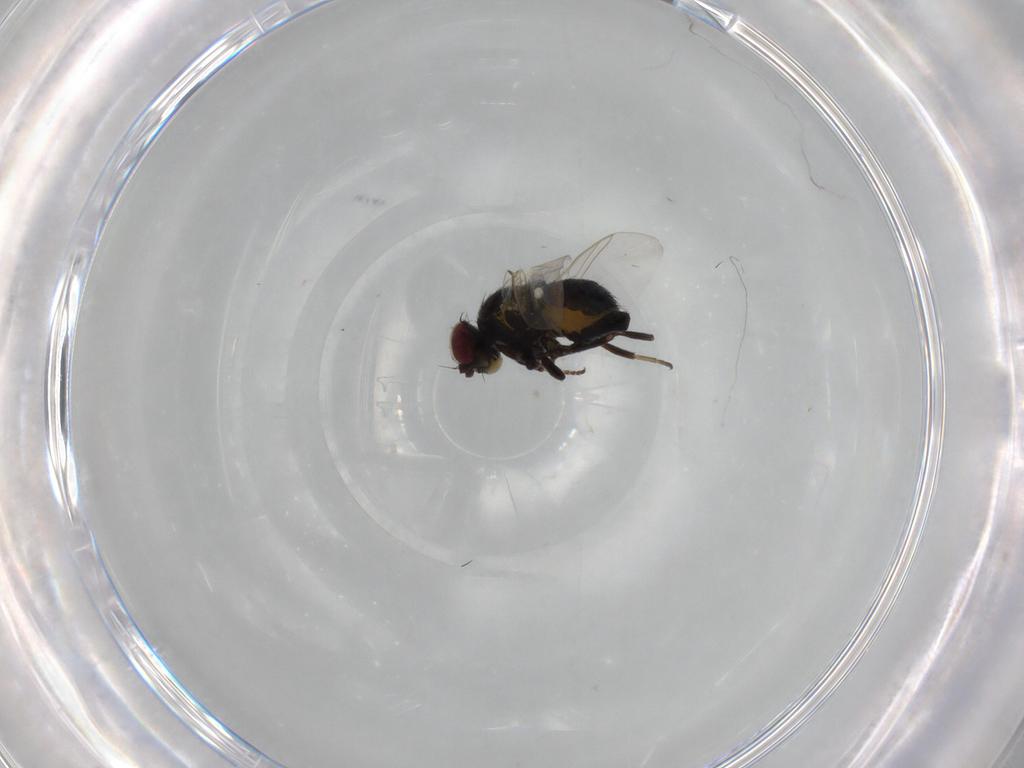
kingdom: Animalia
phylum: Arthropoda
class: Insecta
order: Diptera
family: Agromyzidae
